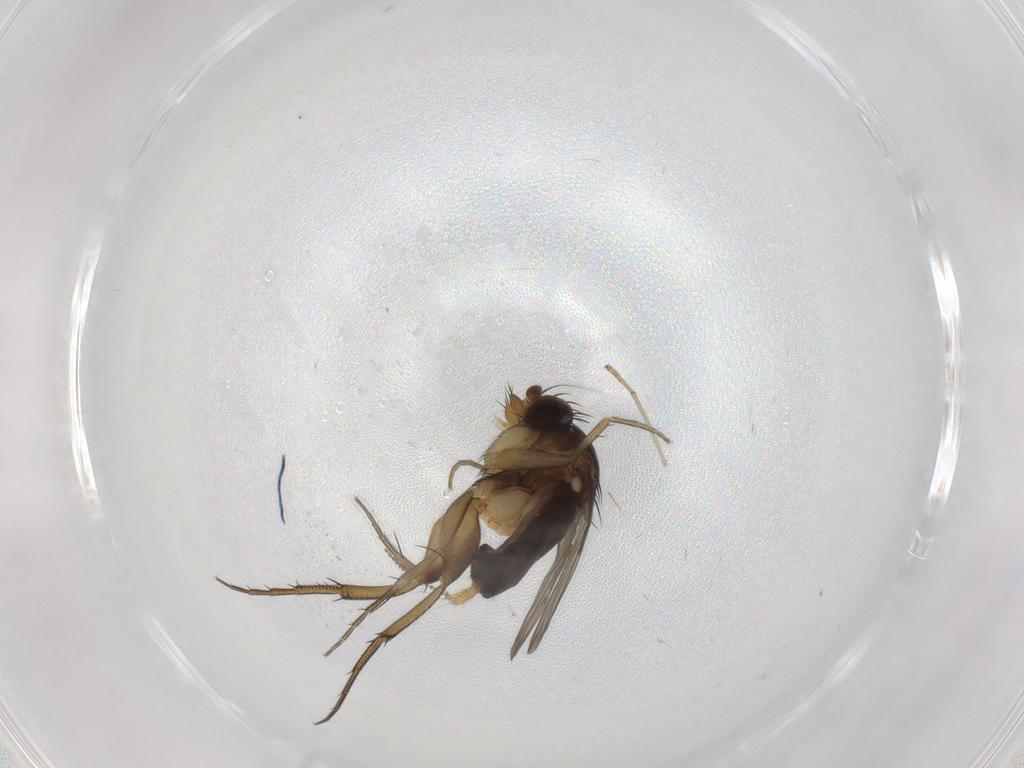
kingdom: Animalia
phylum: Arthropoda
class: Insecta
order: Diptera
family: Phoridae
